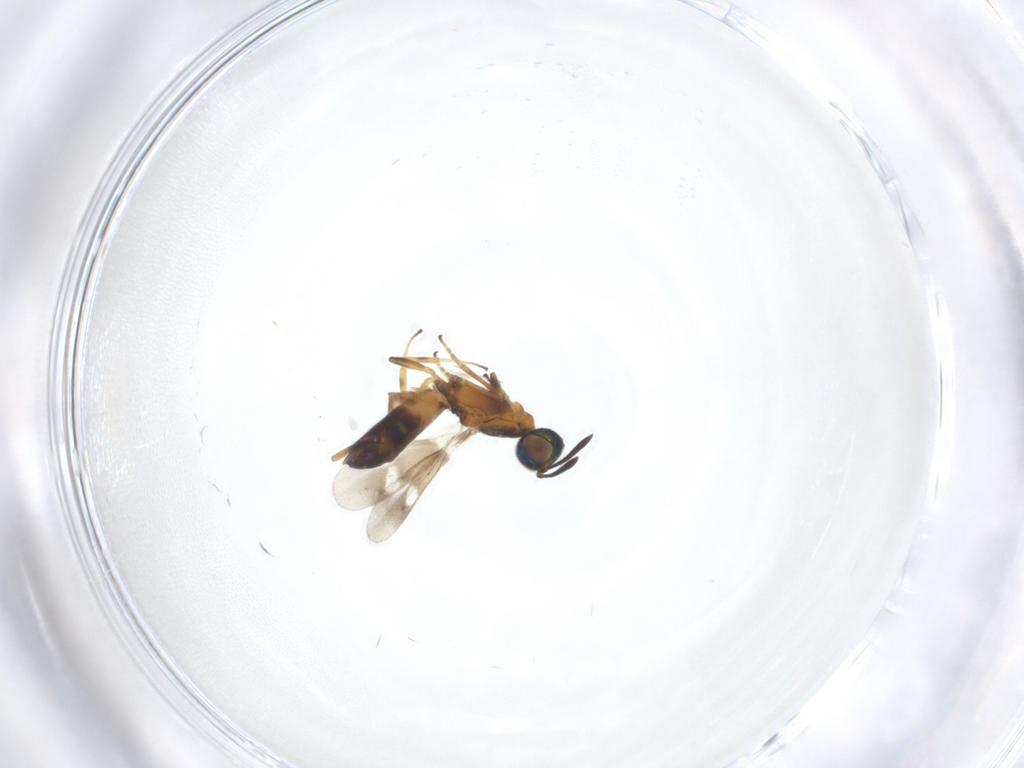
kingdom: Animalia
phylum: Arthropoda
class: Insecta
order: Hymenoptera
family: Eupelmidae
